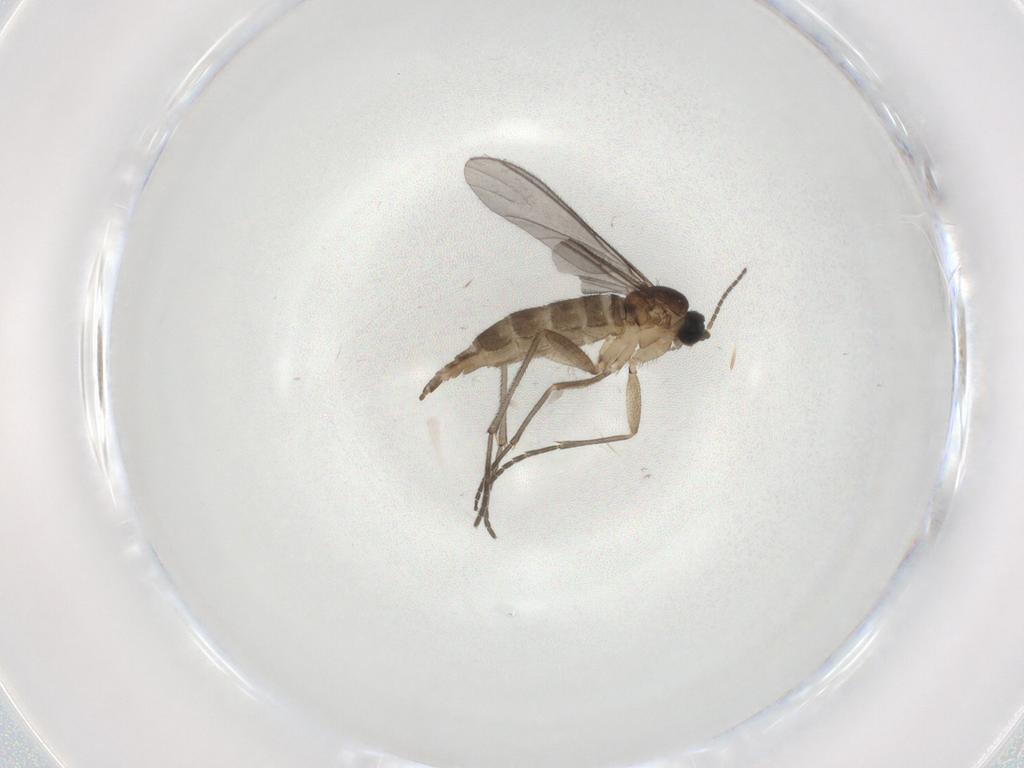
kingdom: Animalia
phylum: Arthropoda
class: Insecta
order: Diptera
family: Sciaridae
